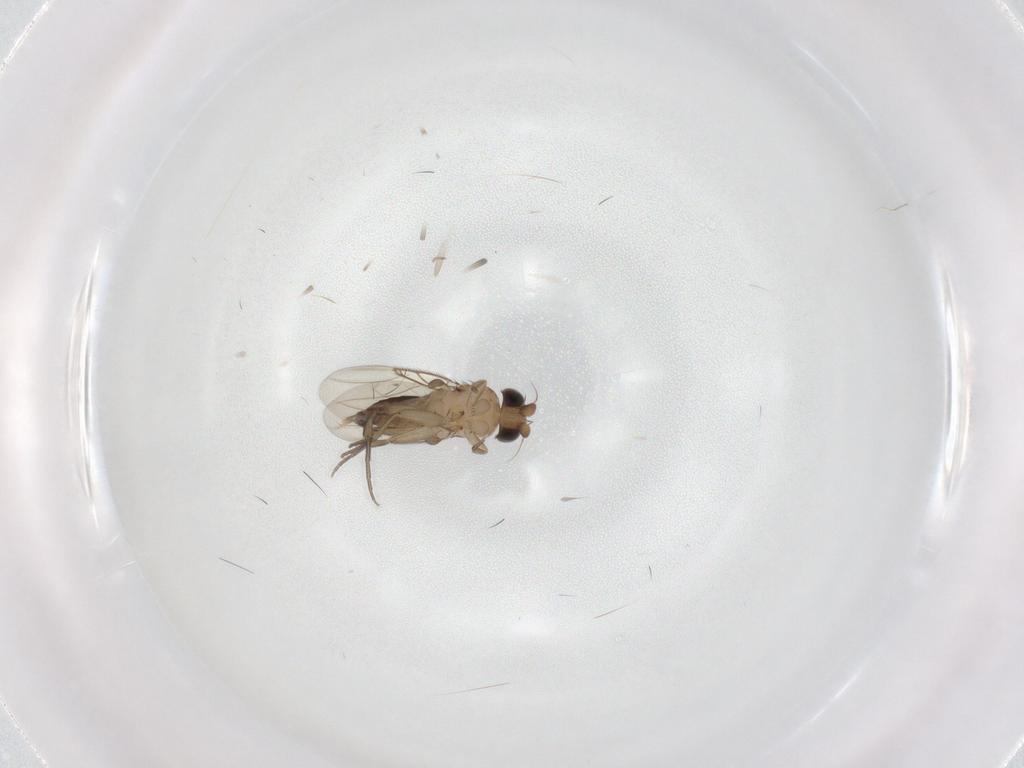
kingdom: Animalia
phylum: Arthropoda
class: Insecta
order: Diptera
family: Phoridae
